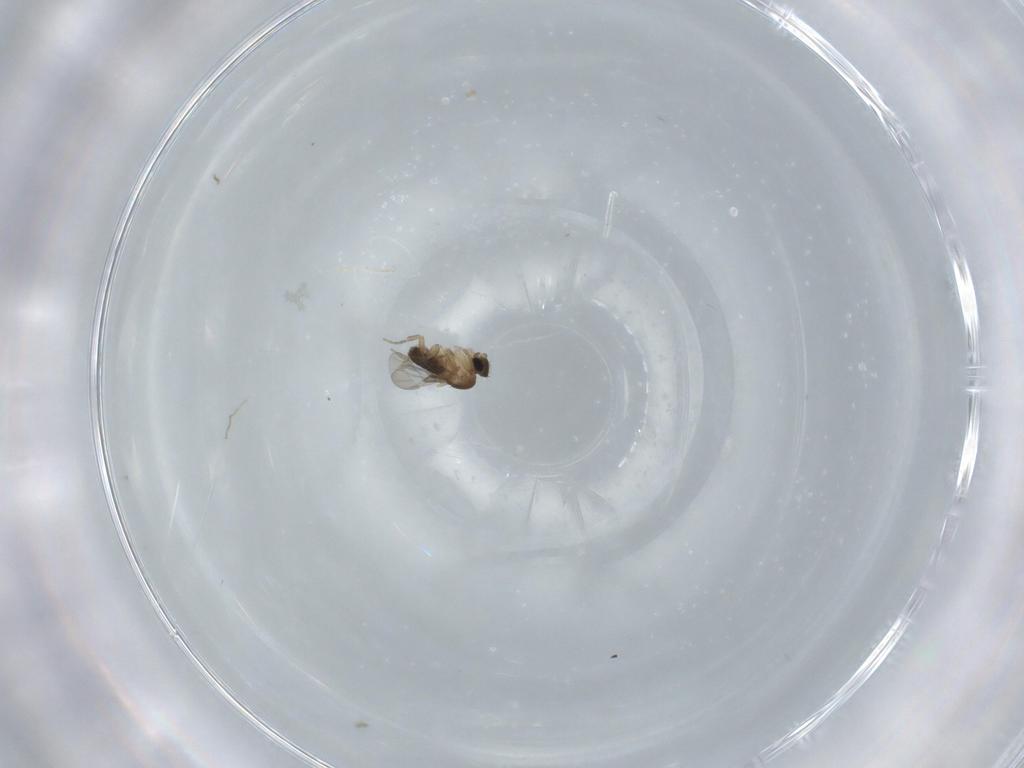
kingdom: Animalia
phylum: Arthropoda
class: Insecta
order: Diptera
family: Phoridae
